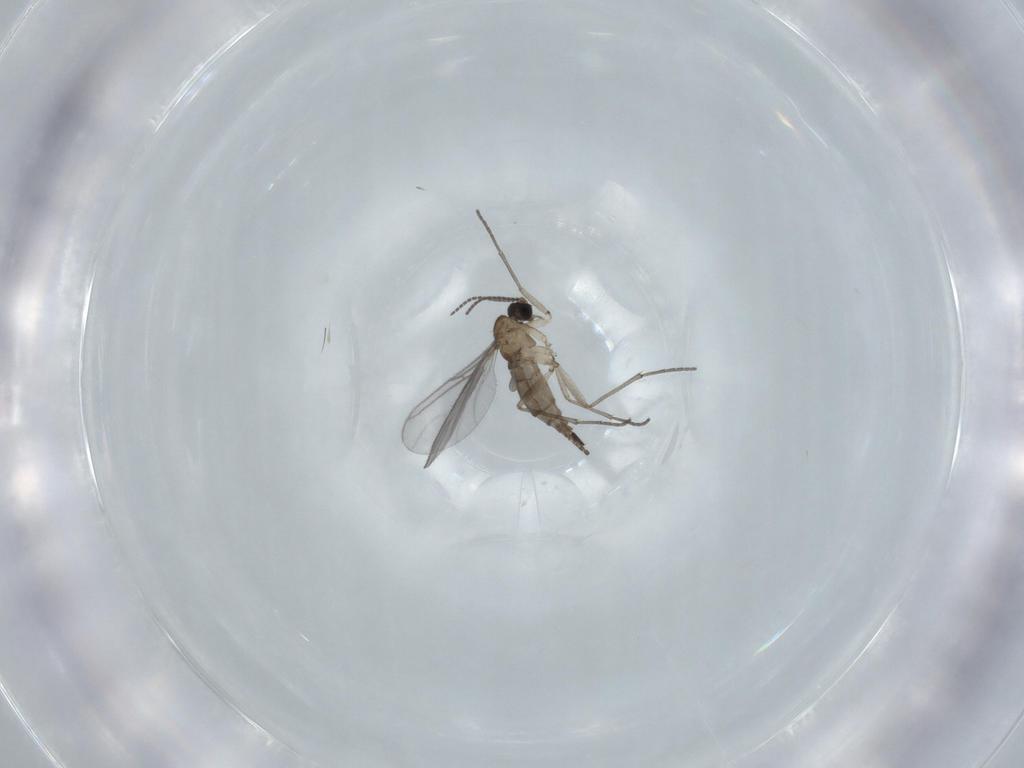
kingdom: Animalia
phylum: Arthropoda
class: Insecta
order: Diptera
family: Sciaridae
